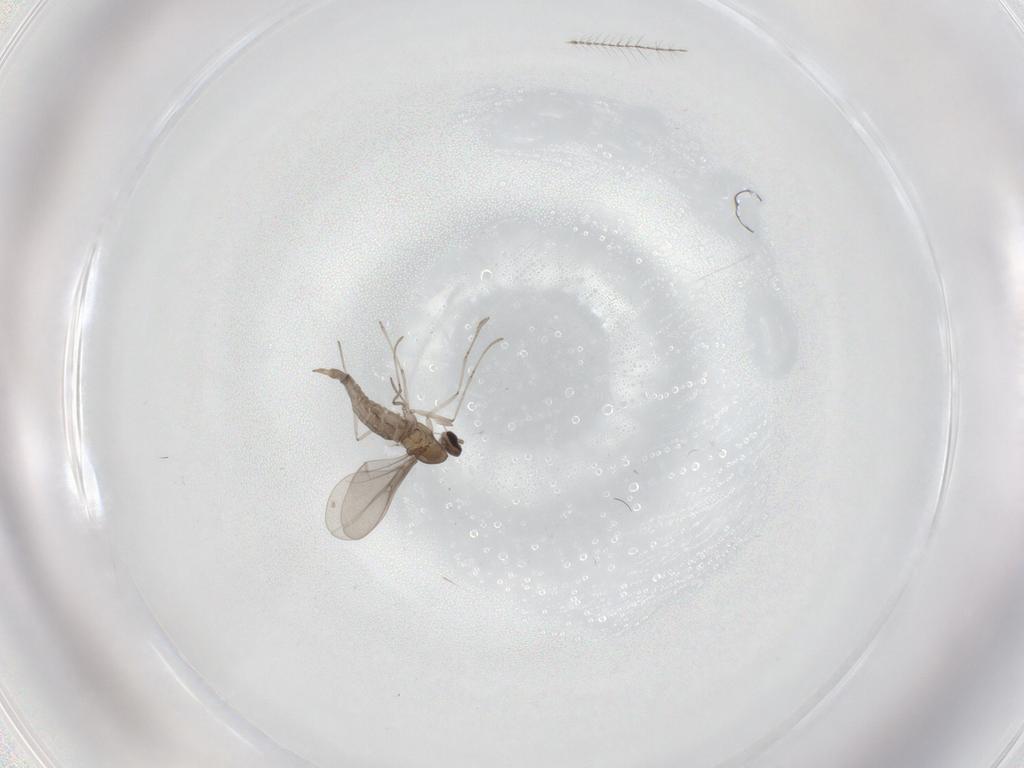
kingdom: Animalia
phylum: Arthropoda
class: Insecta
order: Diptera
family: Ceratopogonidae
